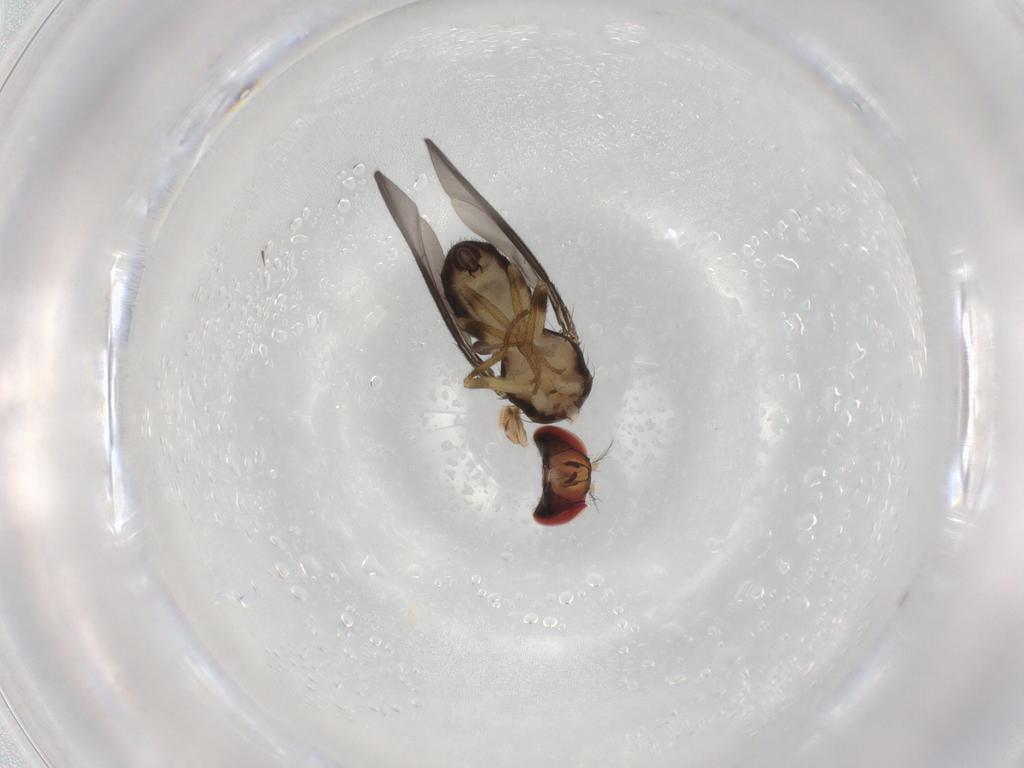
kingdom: Animalia
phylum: Arthropoda
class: Insecta
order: Diptera
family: Drosophilidae
